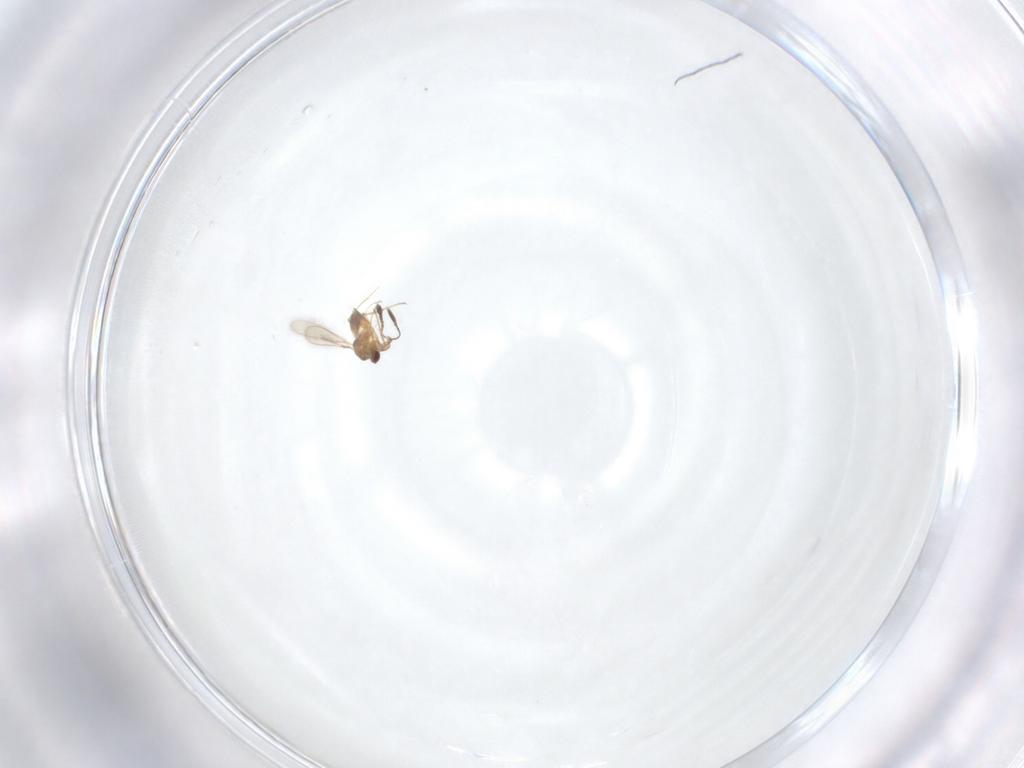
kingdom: Animalia
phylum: Arthropoda
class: Insecta
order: Hymenoptera
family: Mymaridae
